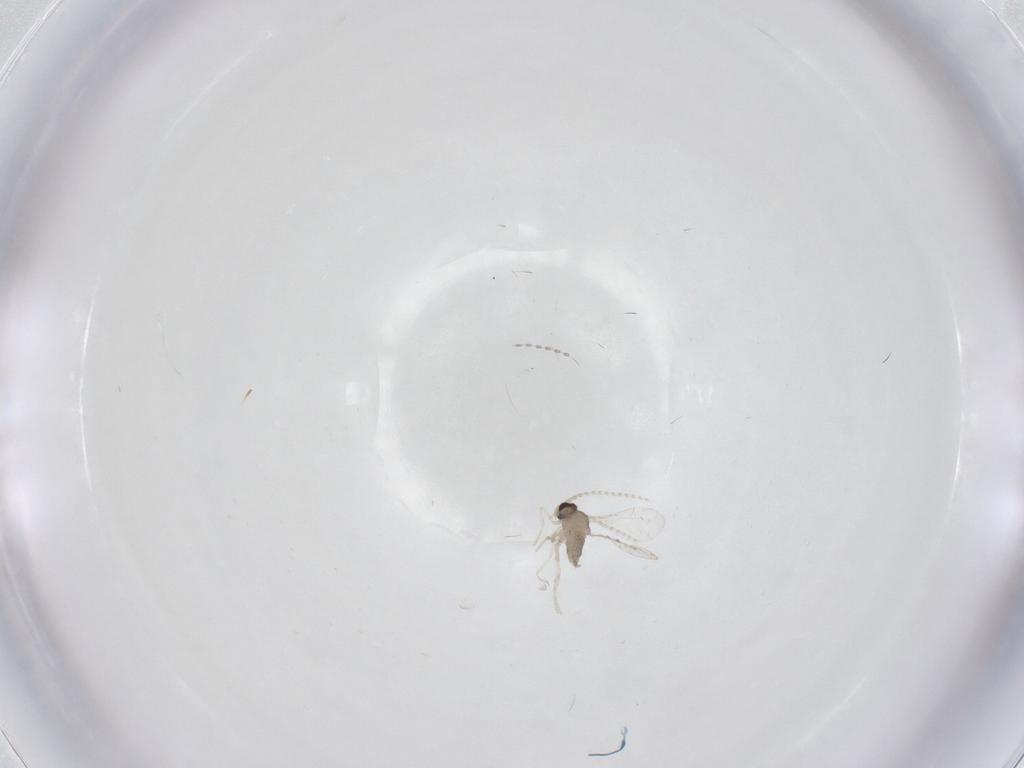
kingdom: Animalia
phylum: Arthropoda
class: Insecta
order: Diptera
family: Cecidomyiidae
